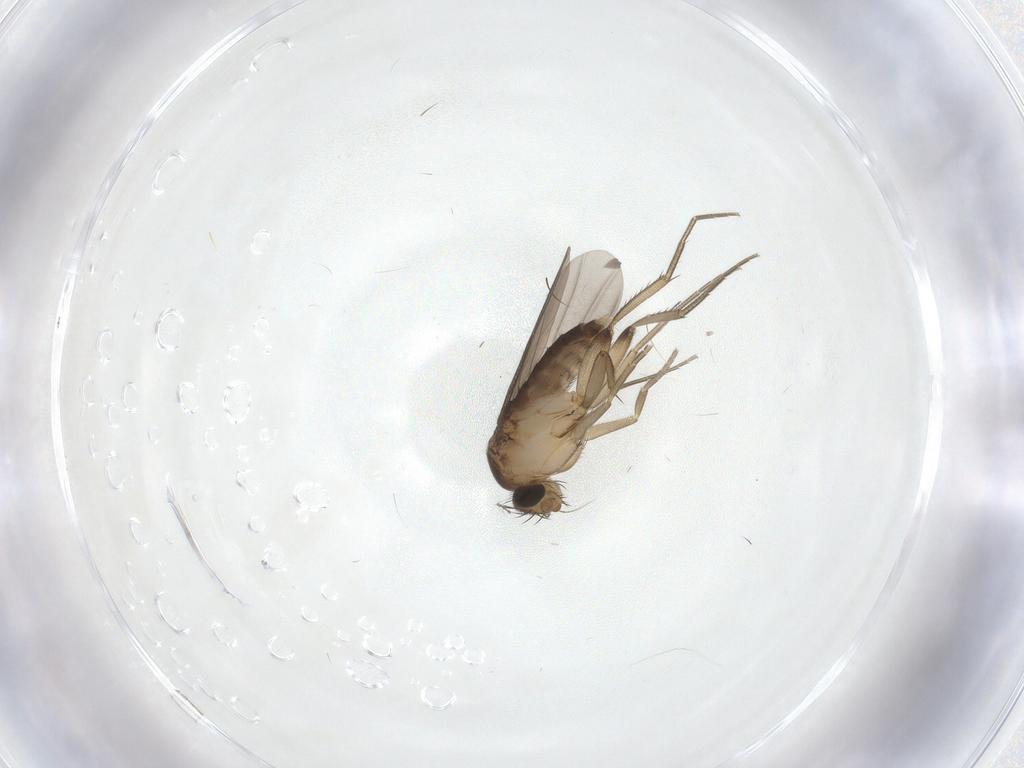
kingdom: Animalia
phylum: Arthropoda
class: Insecta
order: Diptera
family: Phoridae
